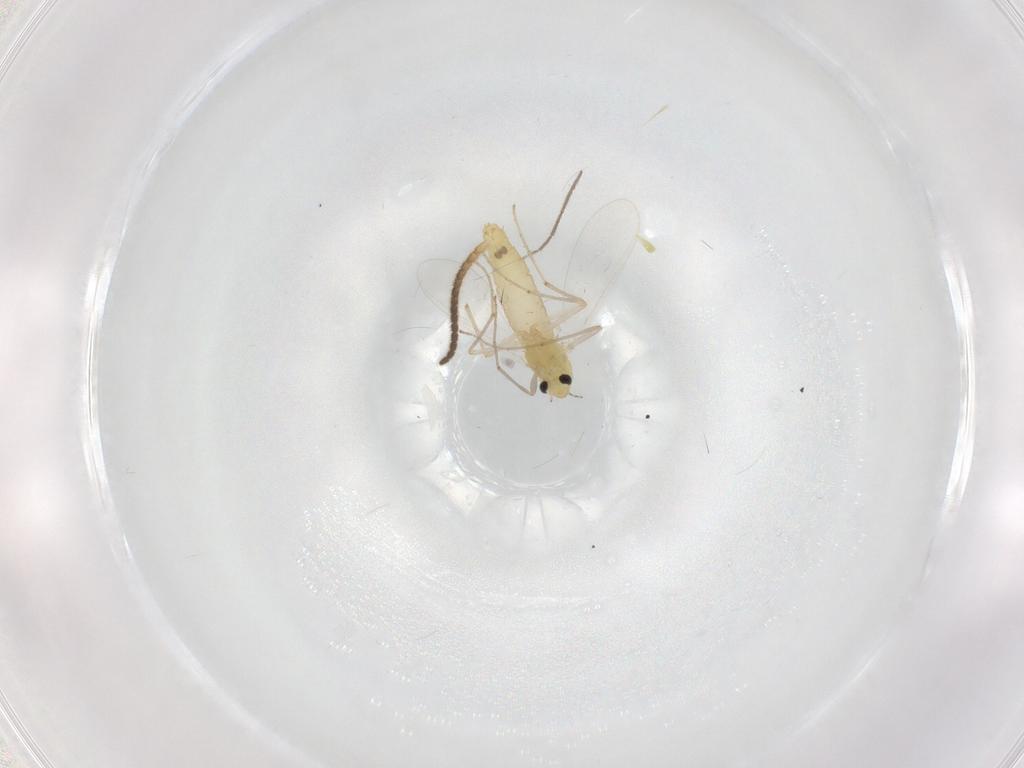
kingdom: Animalia
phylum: Arthropoda
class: Insecta
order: Diptera
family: Chironomidae
